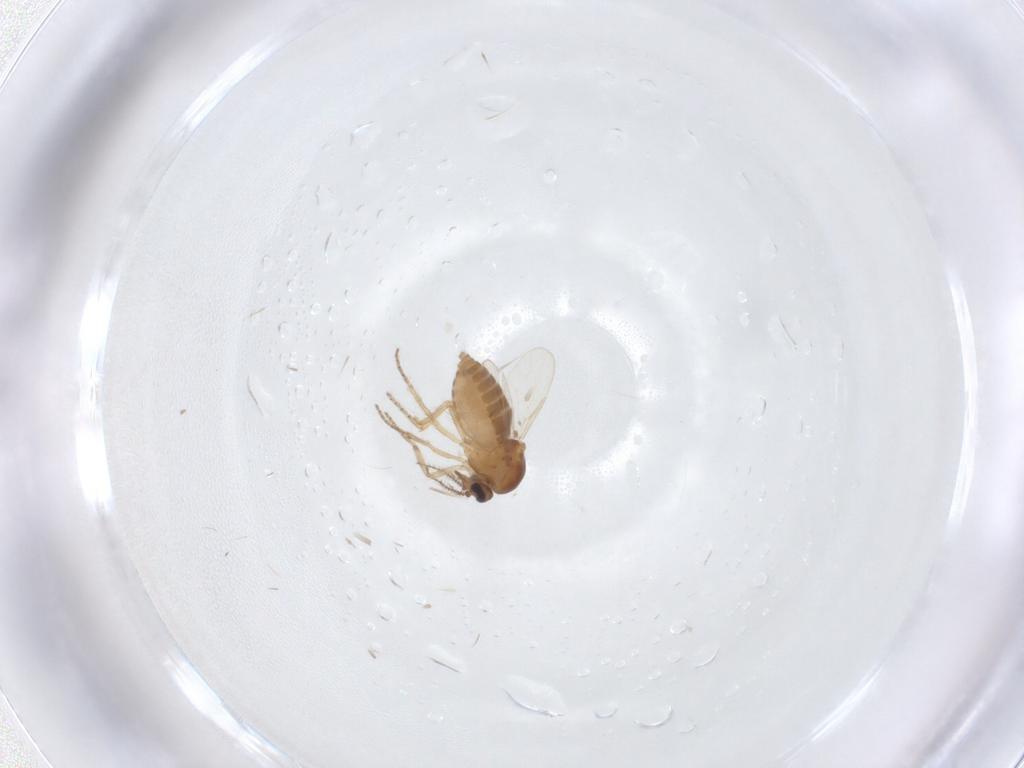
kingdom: Animalia
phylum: Arthropoda
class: Insecta
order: Diptera
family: Ceratopogonidae
